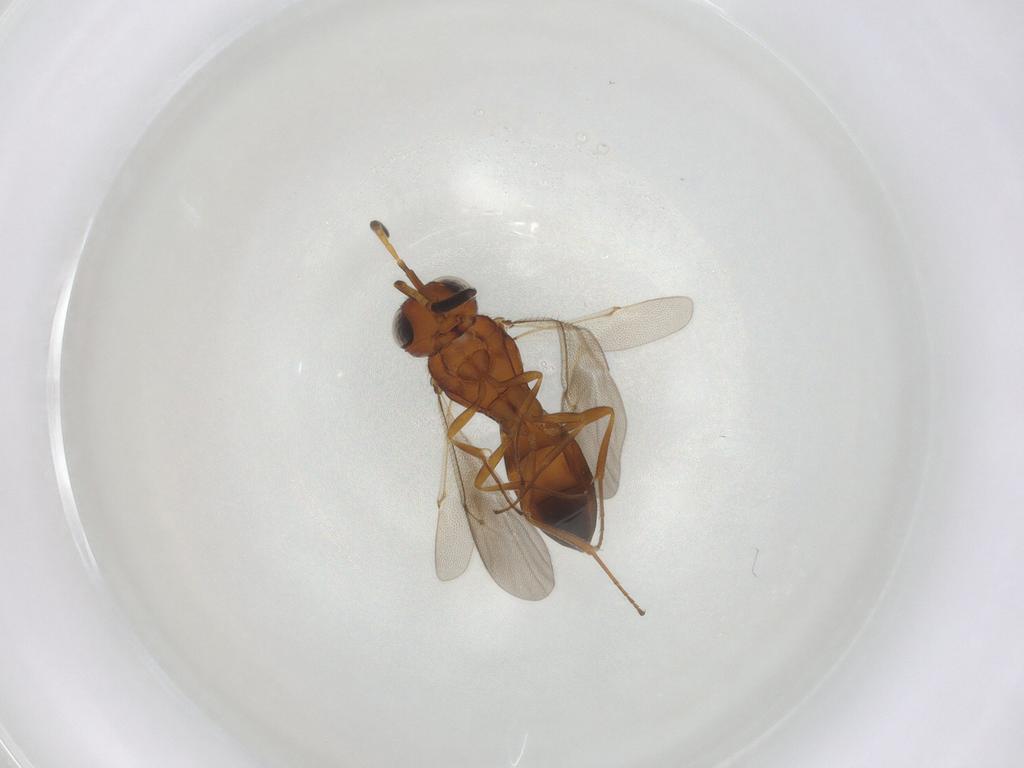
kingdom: Animalia
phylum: Arthropoda
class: Insecta
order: Hymenoptera
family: Scelionidae
